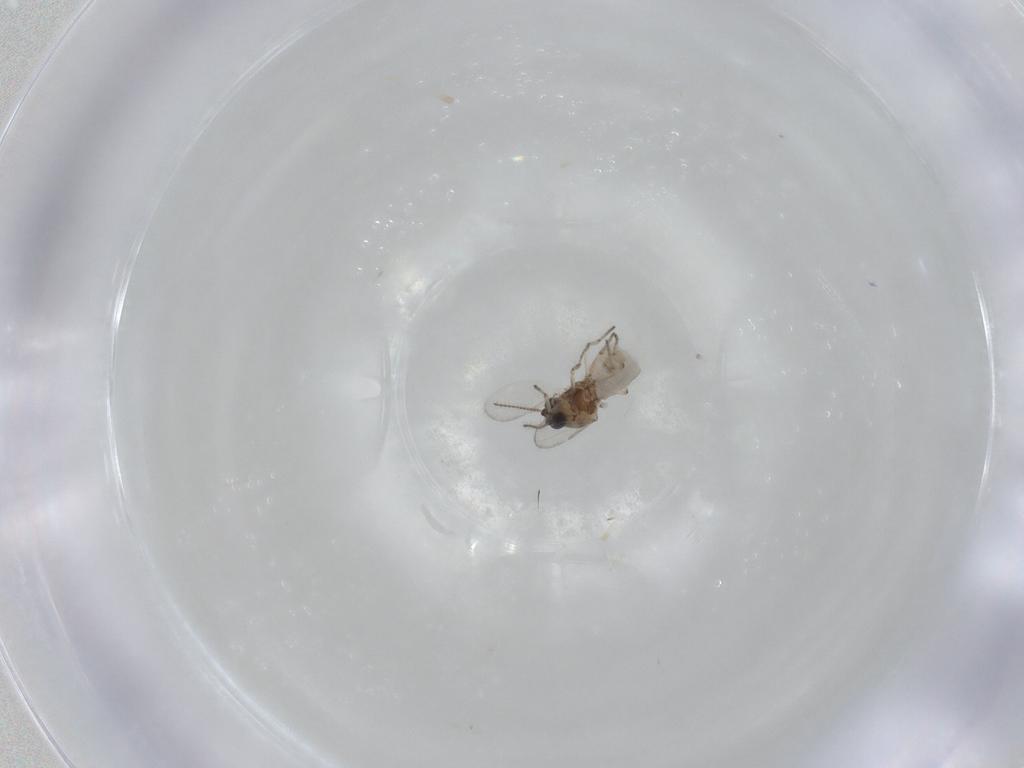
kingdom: Animalia
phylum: Arthropoda
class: Insecta
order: Diptera
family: Ceratopogonidae
